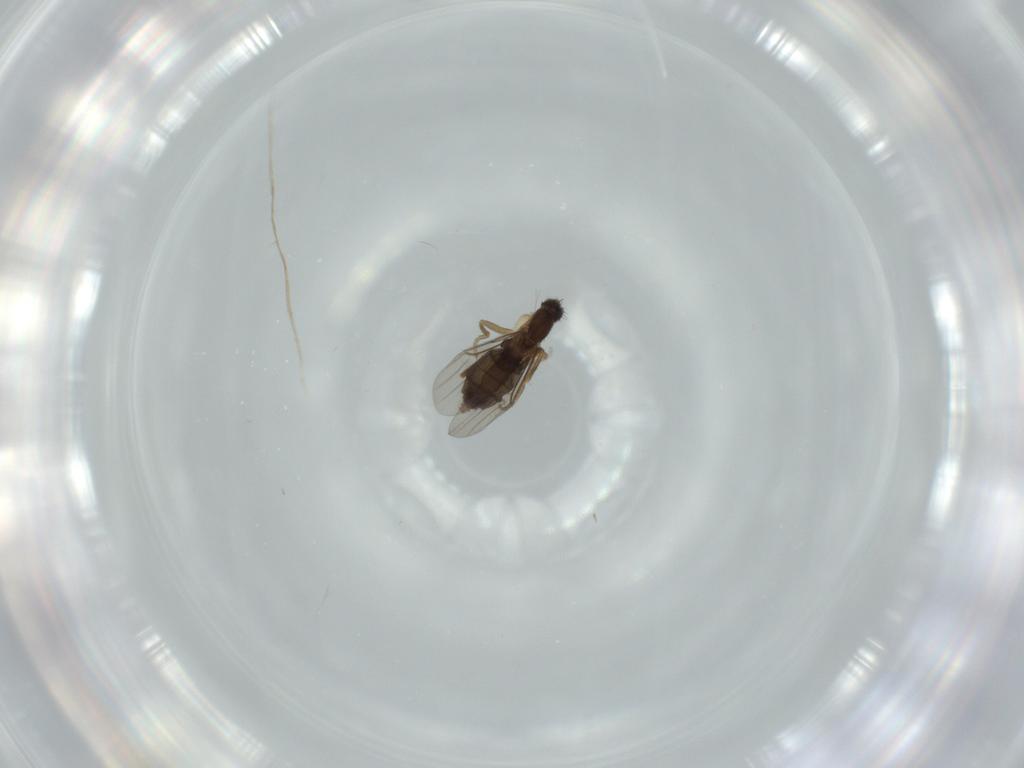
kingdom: Animalia
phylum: Arthropoda
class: Insecta
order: Diptera
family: Phoridae
